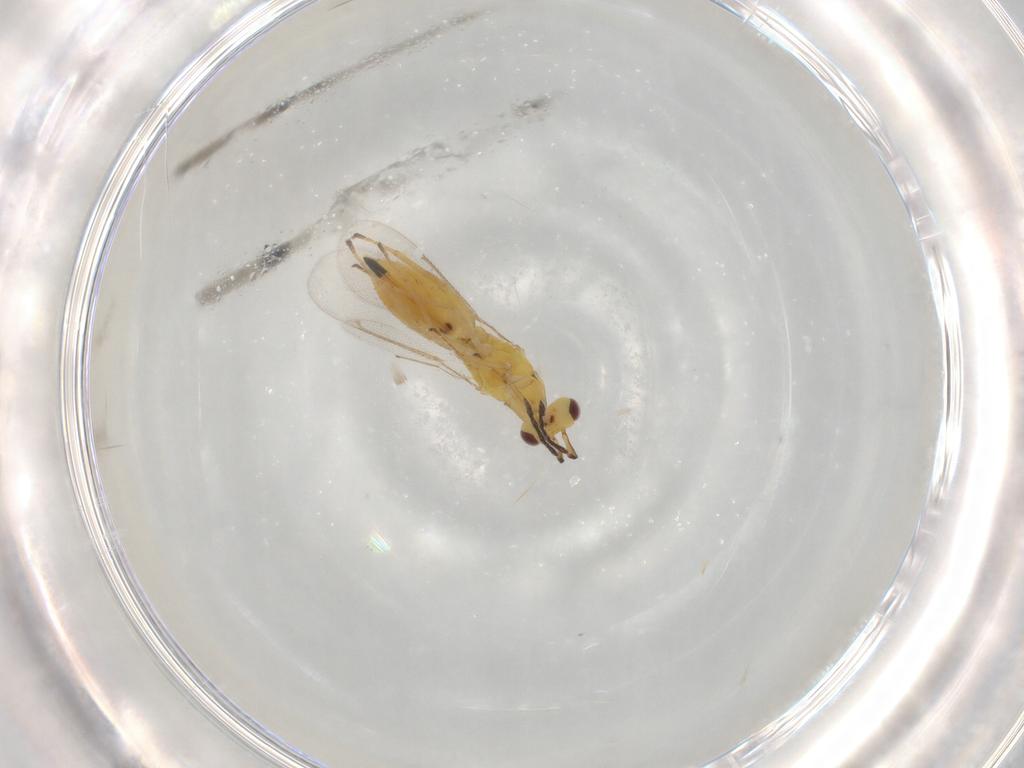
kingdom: Animalia
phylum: Arthropoda
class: Insecta
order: Hymenoptera
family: Eulophidae
